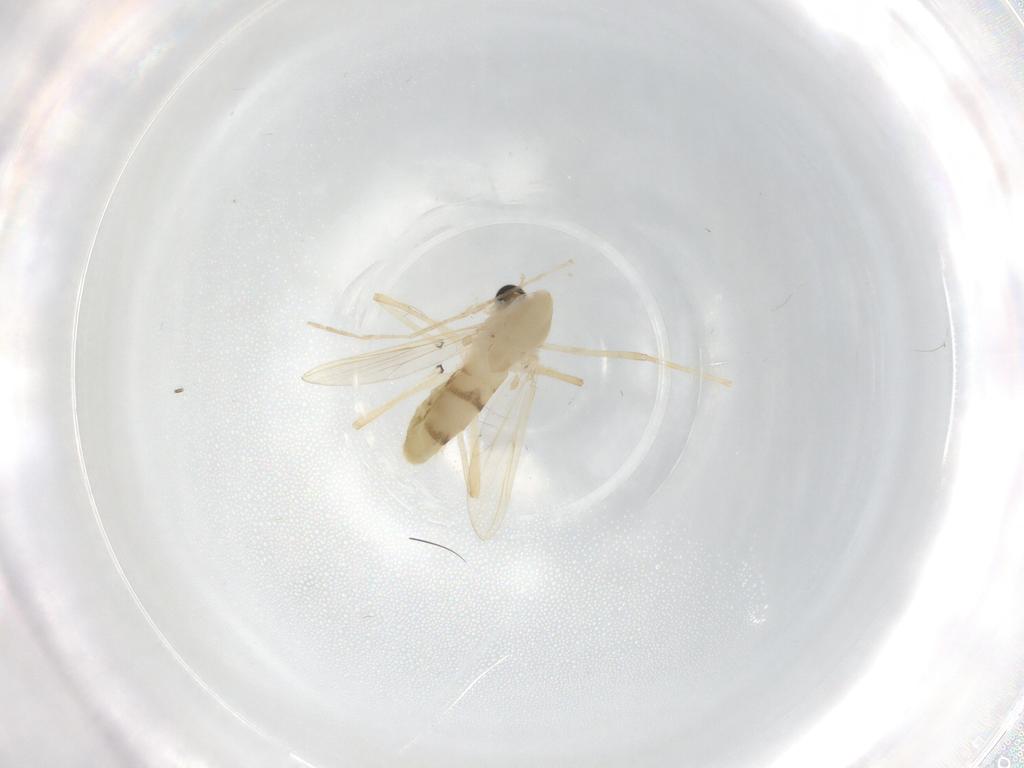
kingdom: Animalia
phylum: Arthropoda
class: Insecta
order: Diptera
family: Chironomidae
